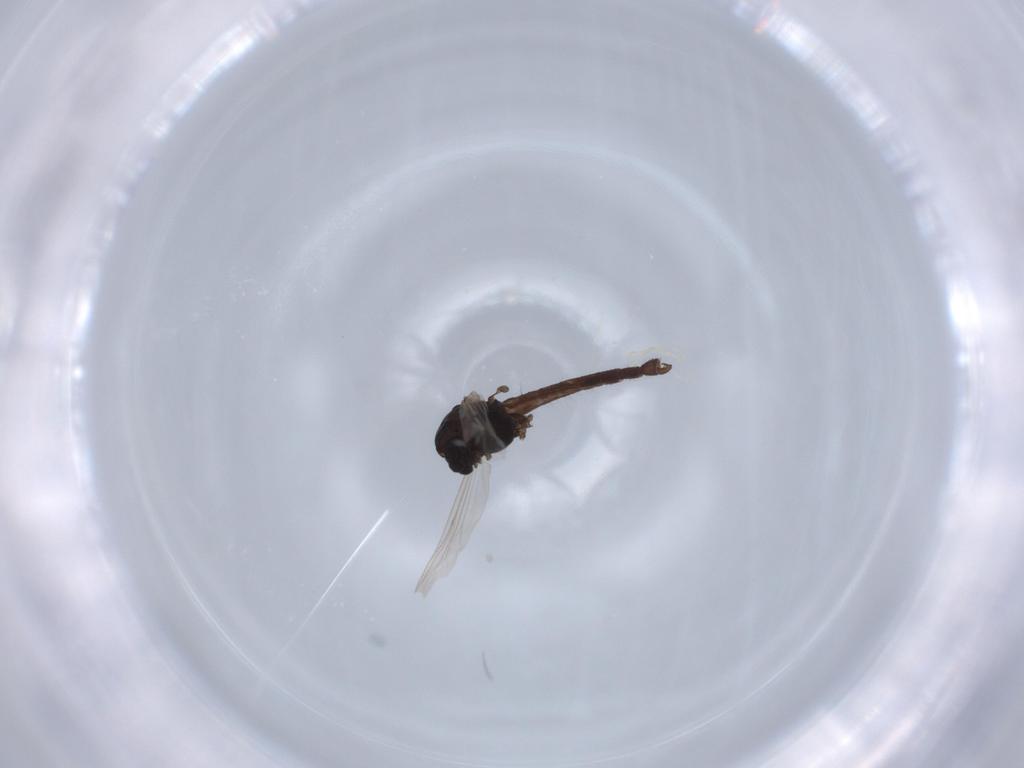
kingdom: Animalia
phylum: Arthropoda
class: Insecta
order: Diptera
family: Chironomidae
